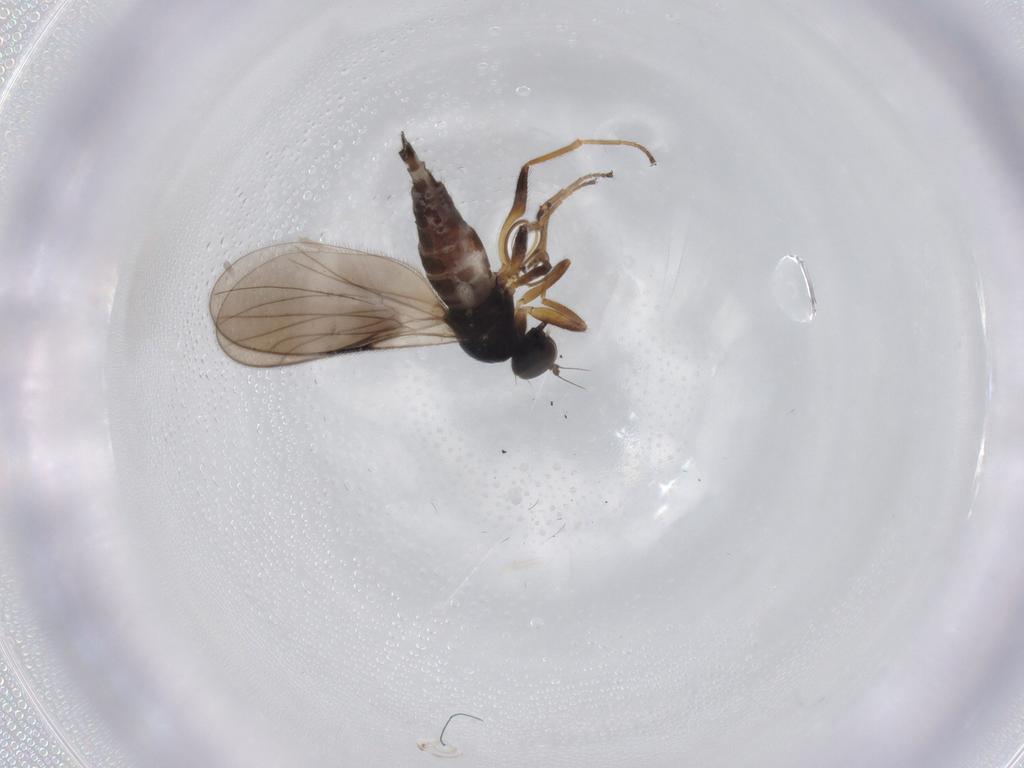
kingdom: Animalia
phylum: Arthropoda
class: Insecta
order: Diptera
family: Hybotidae
